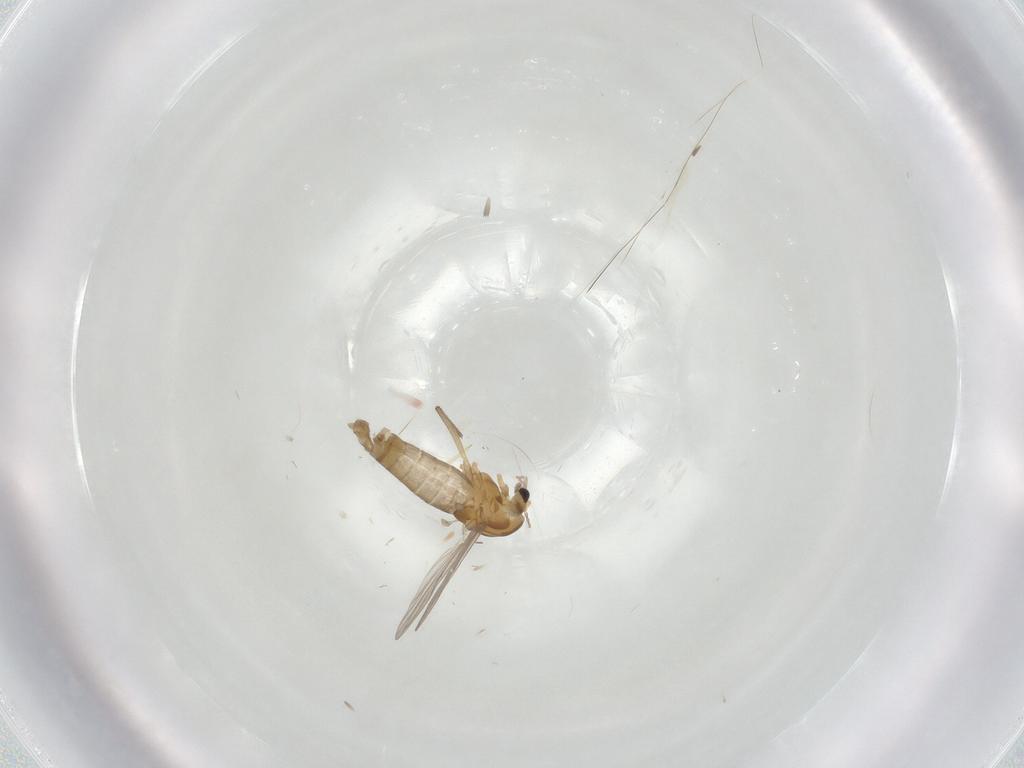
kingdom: Animalia
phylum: Arthropoda
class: Insecta
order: Diptera
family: Chironomidae
